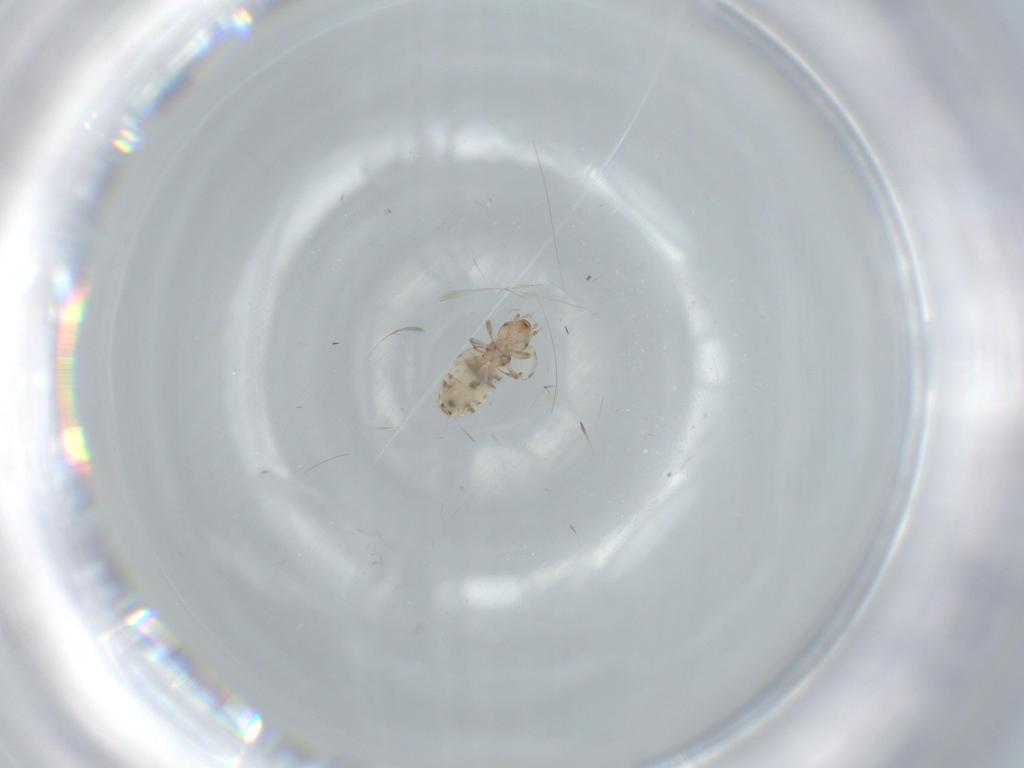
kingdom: Animalia
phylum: Arthropoda
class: Insecta
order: Psocodea
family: Liposcelididae
